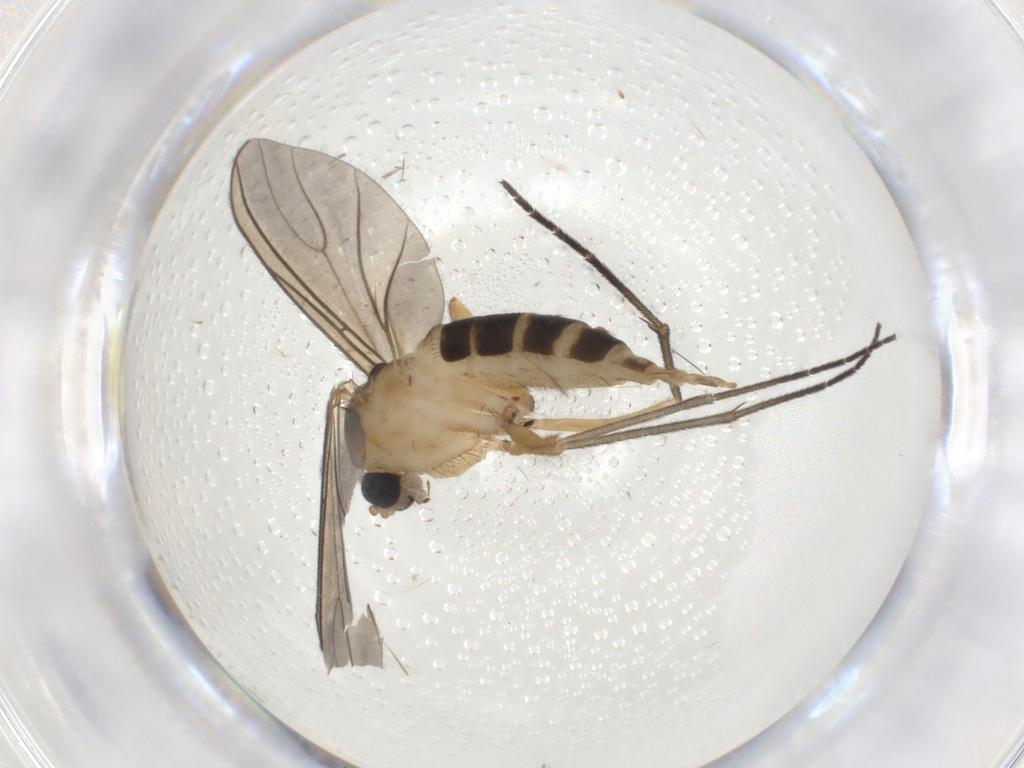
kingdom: Animalia
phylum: Arthropoda
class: Insecta
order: Diptera
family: Sciaridae
